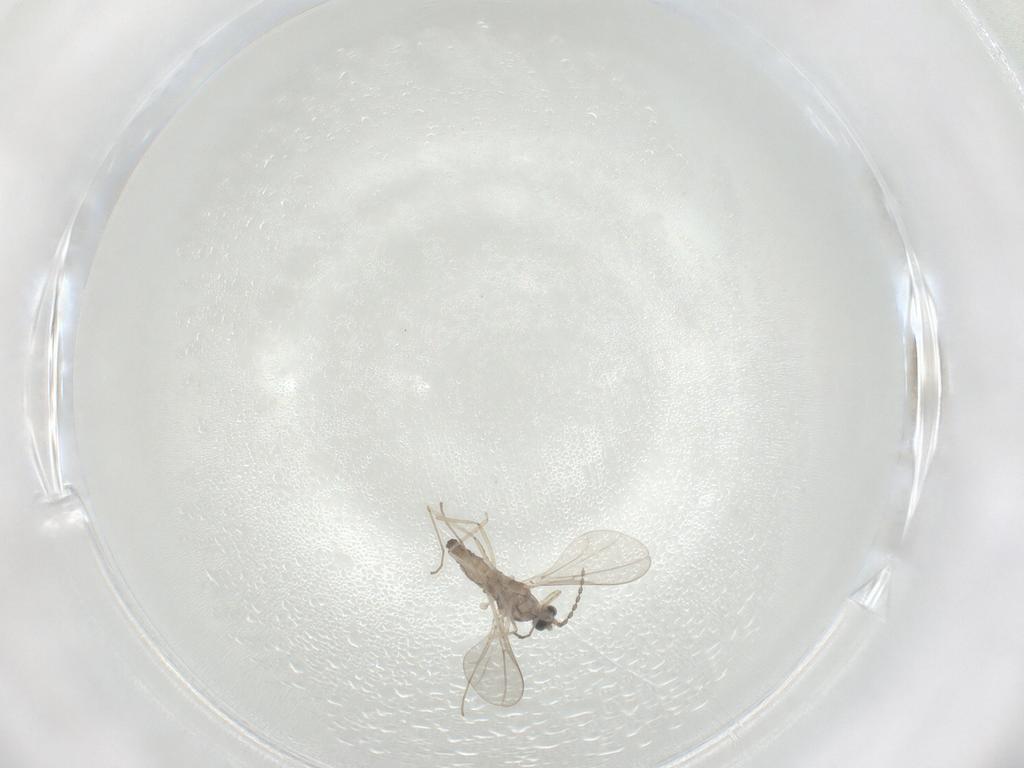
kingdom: Animalia
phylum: Arthropoda
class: Insecta
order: Diptera
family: Cecidomyiidae
